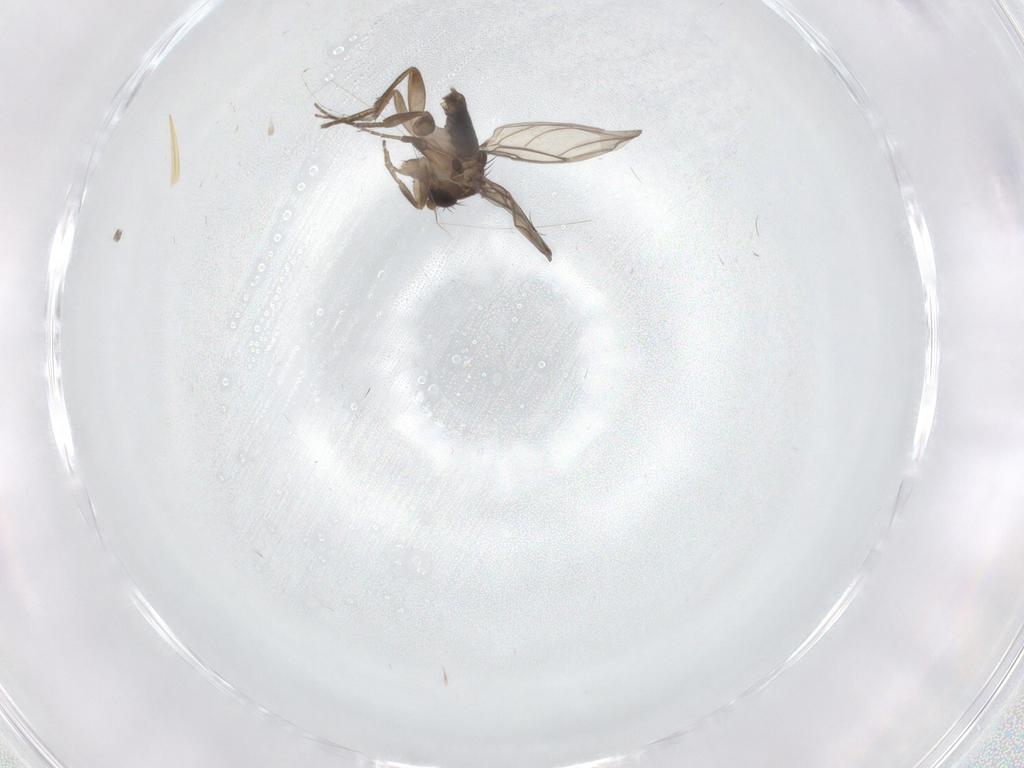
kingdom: Animalia
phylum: Arthropoda
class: Insecta
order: Diptera
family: Phoridae
